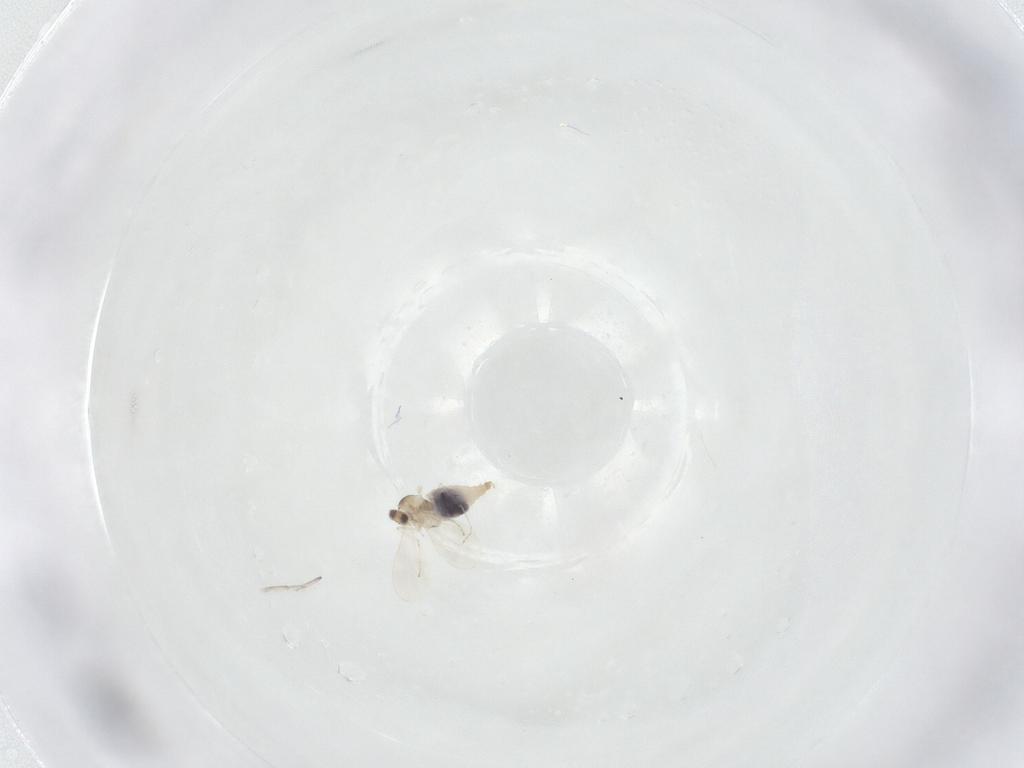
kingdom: Animalia
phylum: Arthropoda
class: Insecta
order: Diptera
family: Cecidomyiidae
